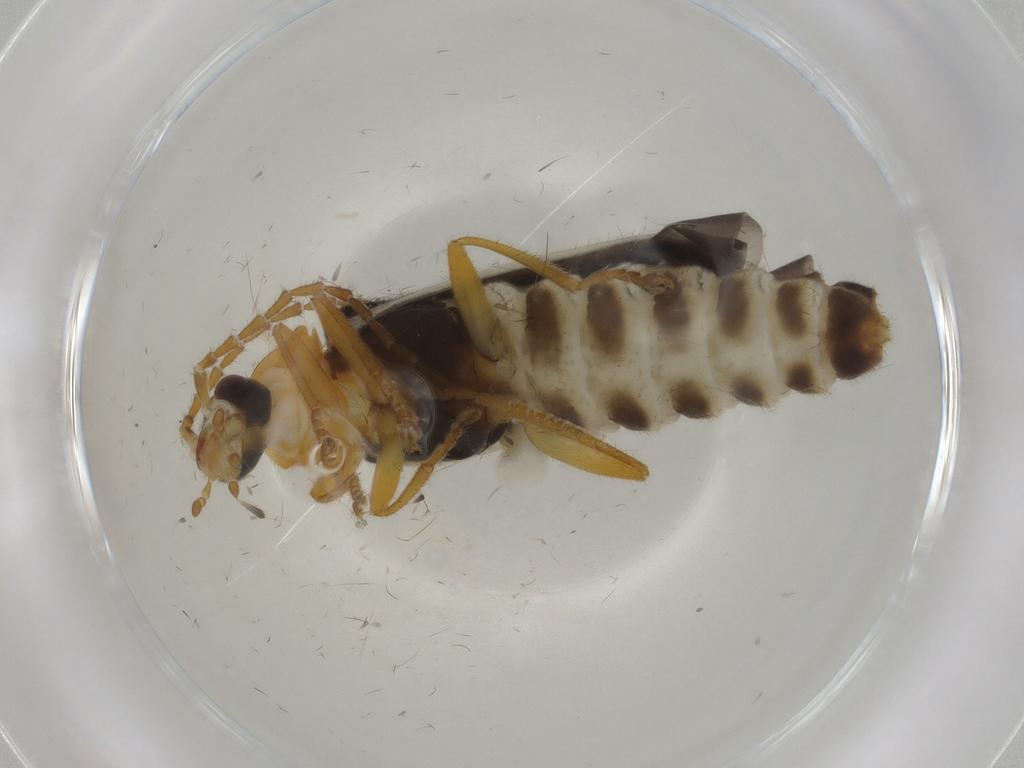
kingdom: Animalia
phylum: Arthropoda
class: Insecta
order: Coleoptera
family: Cantharidae
